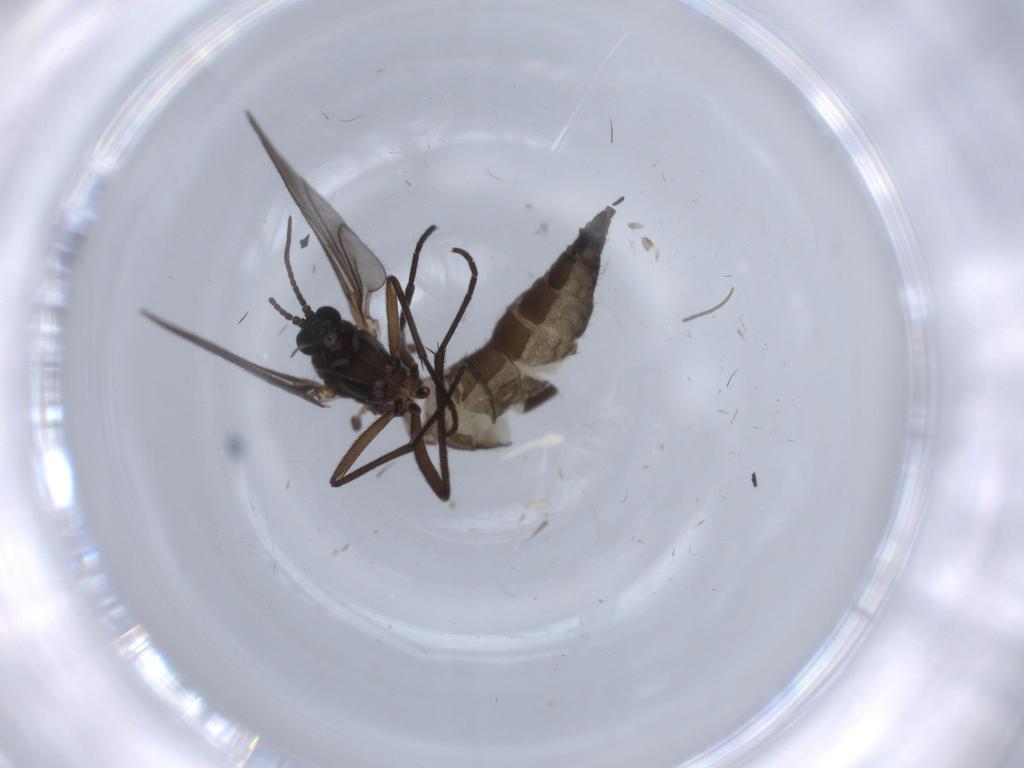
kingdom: Animalia
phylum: Arthropoda
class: Insecta
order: Diptera
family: Sciaridae
